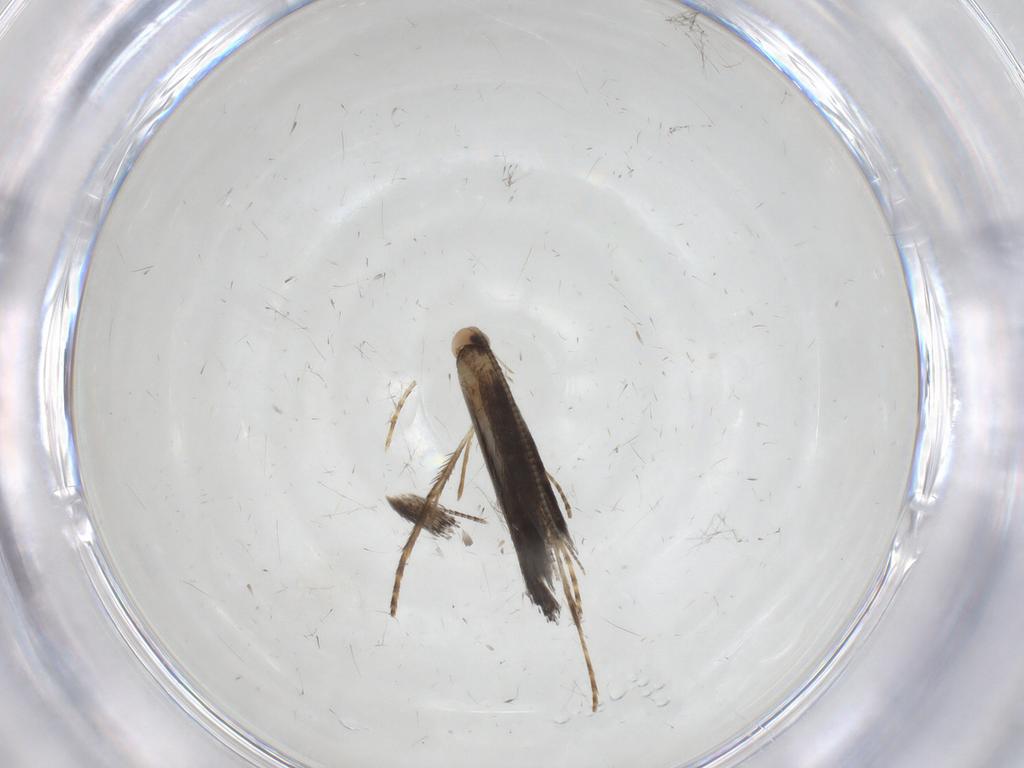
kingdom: Animalia
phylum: Arthropoda
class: Insecta
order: Lepidoptera
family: Gracillariidae
